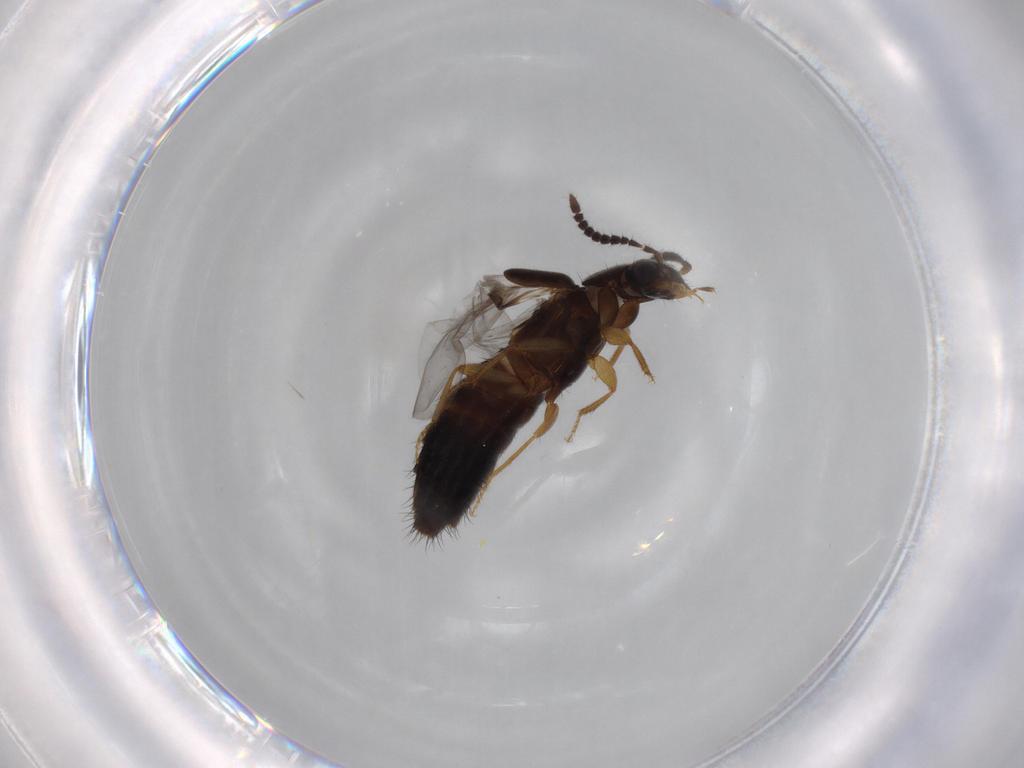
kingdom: Animalia
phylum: Arthropoda
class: Insecta
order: Coleoptera
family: Staphylinidae
